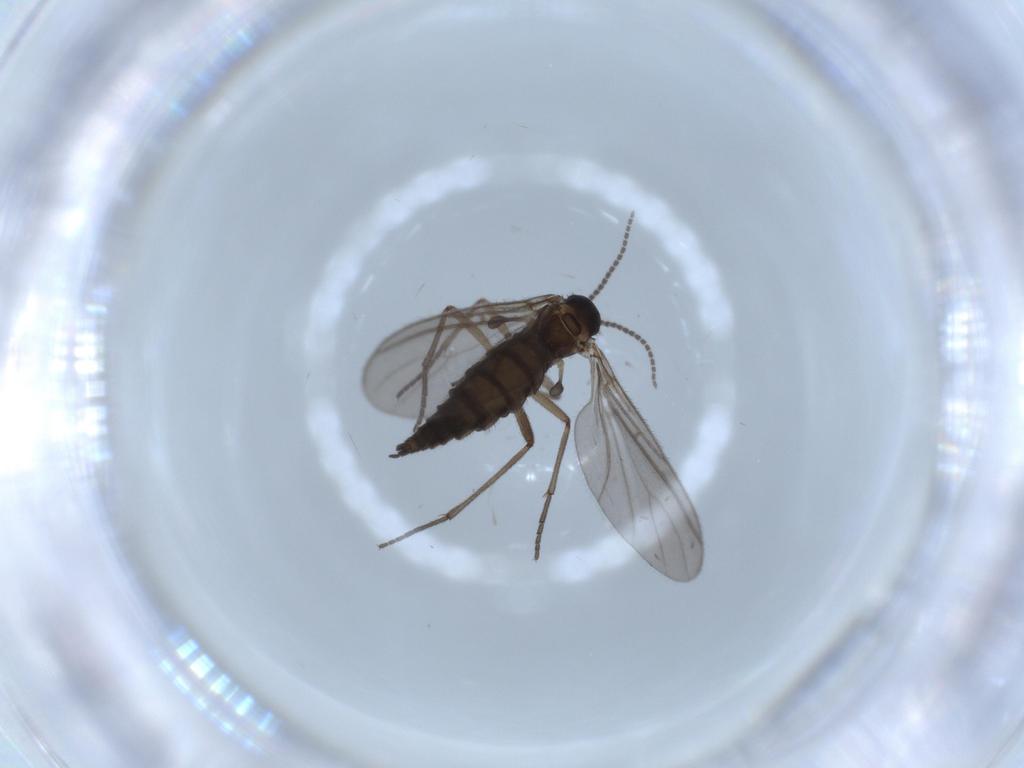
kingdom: Animalia
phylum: Arthropoda
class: Insecta
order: Diptera
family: Sciaridae
